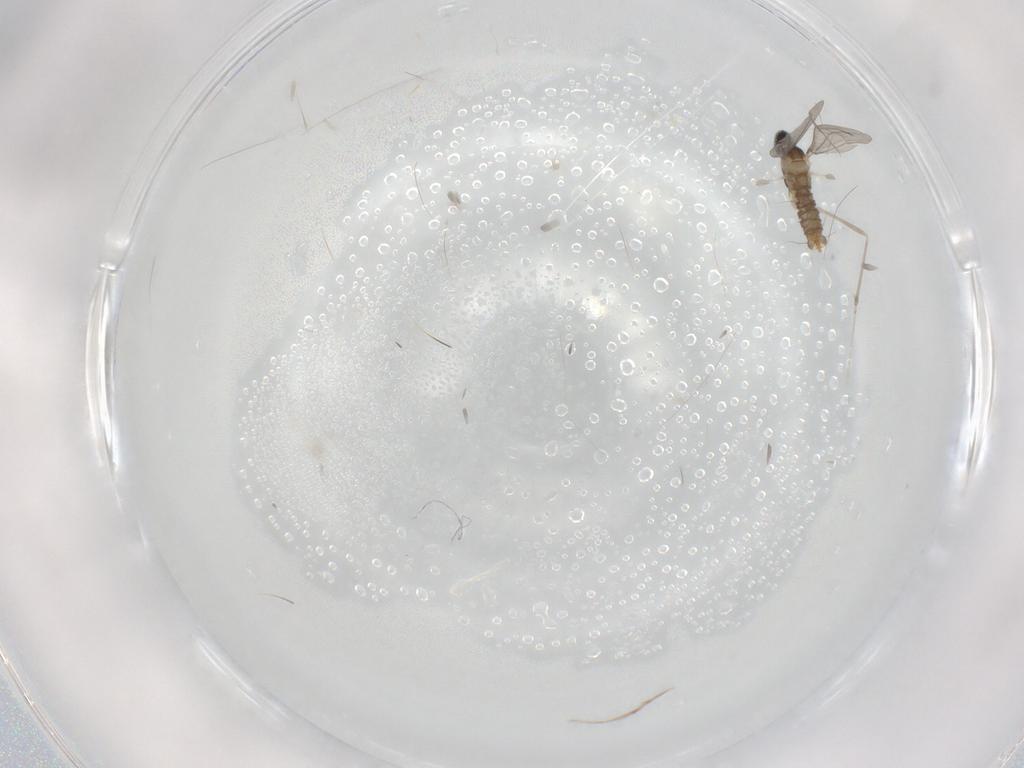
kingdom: Animalia
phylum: Arthropoda
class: Insecta
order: Diptera
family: Cecidomyiidae
